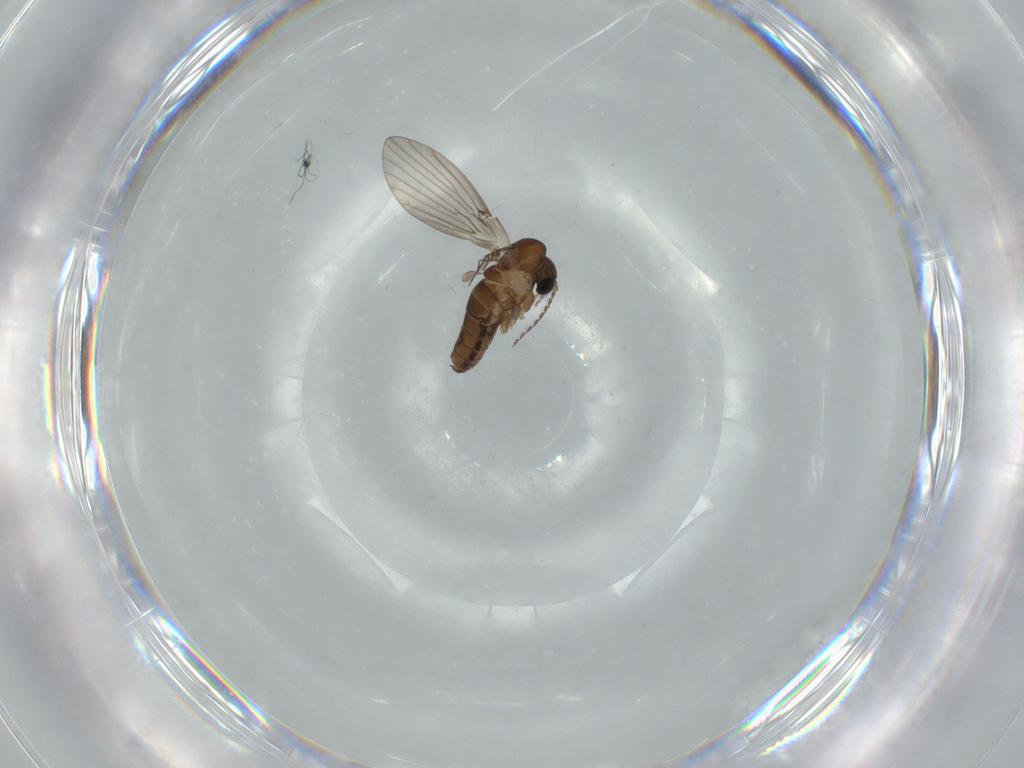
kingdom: Animalia
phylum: Arthropoda
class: Insecta
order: Diptera
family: Psychodidae
